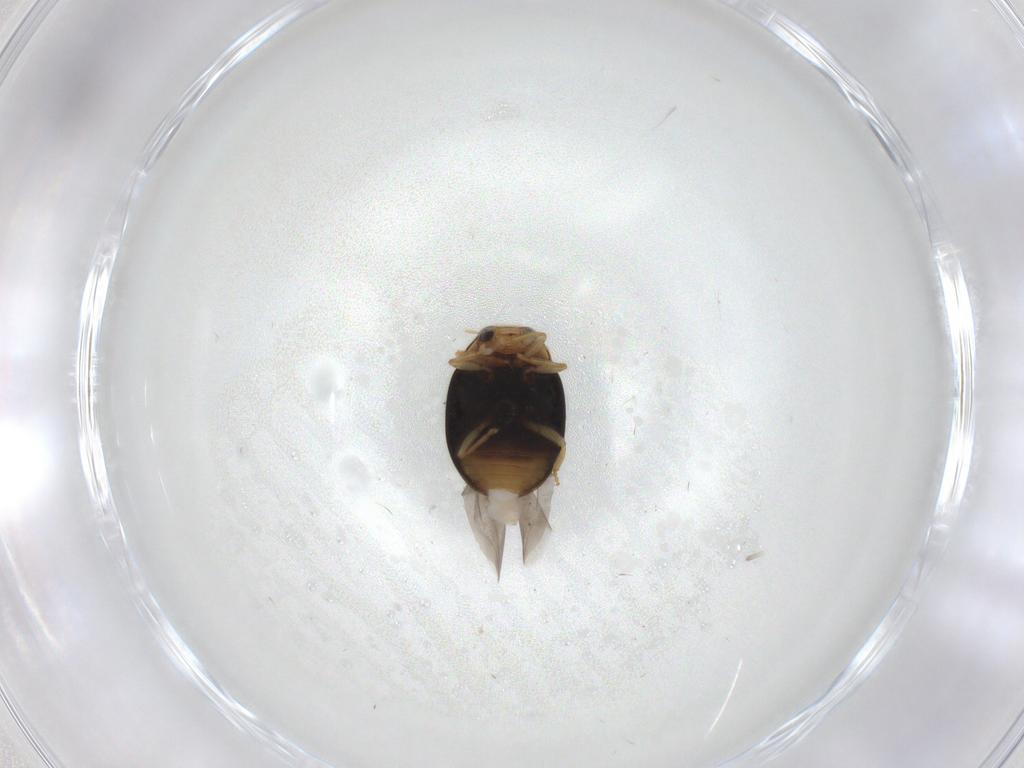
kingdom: Animalia
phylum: Arthropoda
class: Insecta
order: Coleoptera
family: Coccinellidae
